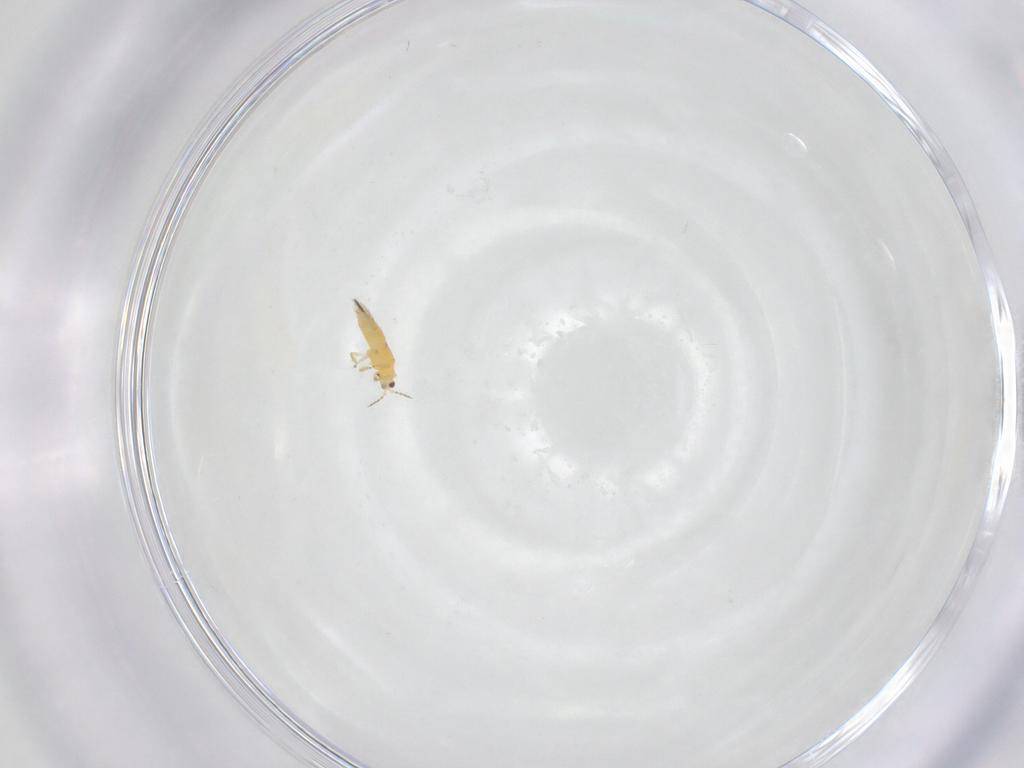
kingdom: Animalia
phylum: Arthropoda
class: Insecta
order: Thysanoptera
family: Thripidae
